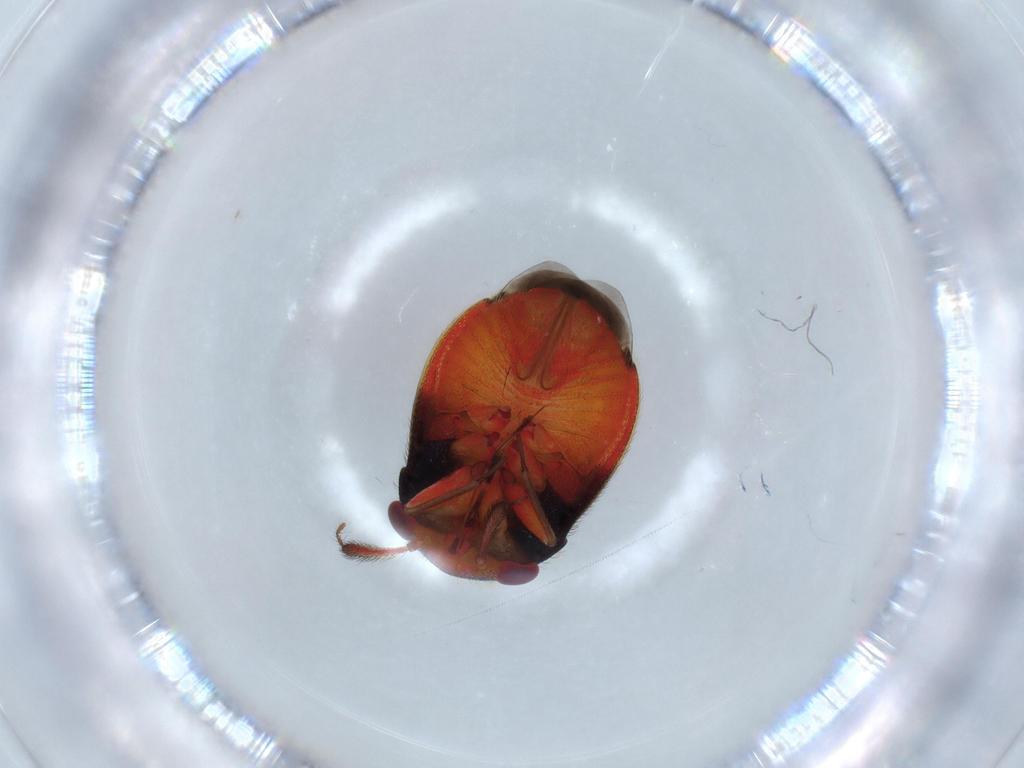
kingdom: Animalia
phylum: Arthropoda
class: Insecta
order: Hemiptera
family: Miridae
